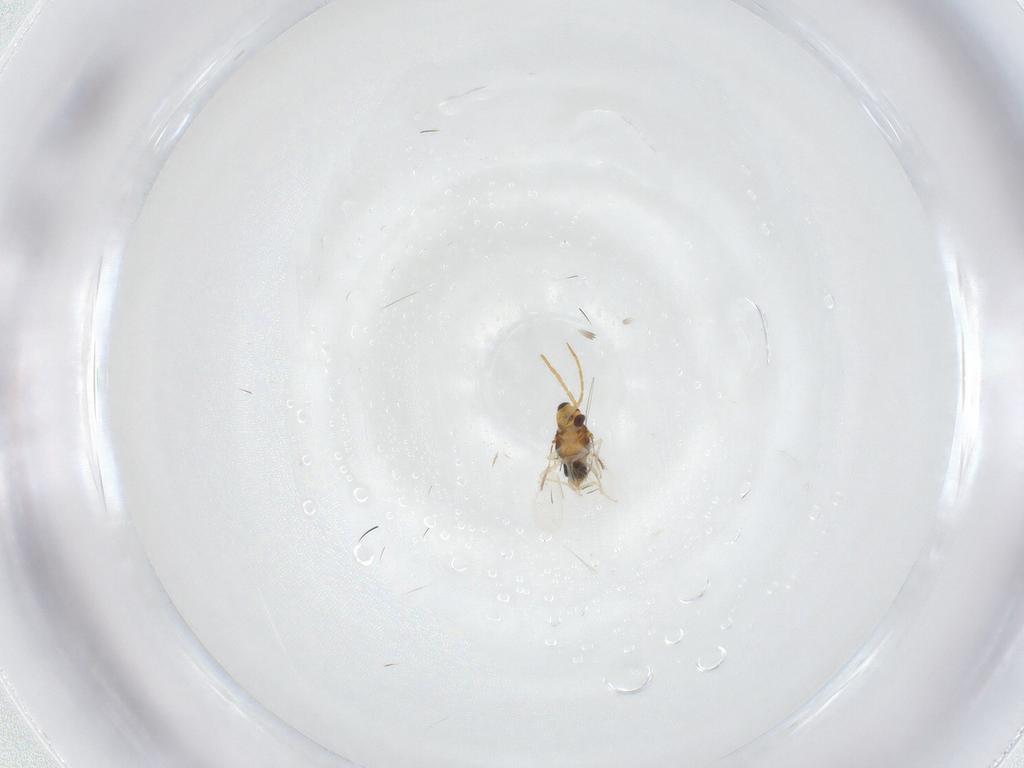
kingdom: Animalia
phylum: Arthropoda
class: Insecta
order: Hymenoptera
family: Aphelinidae
